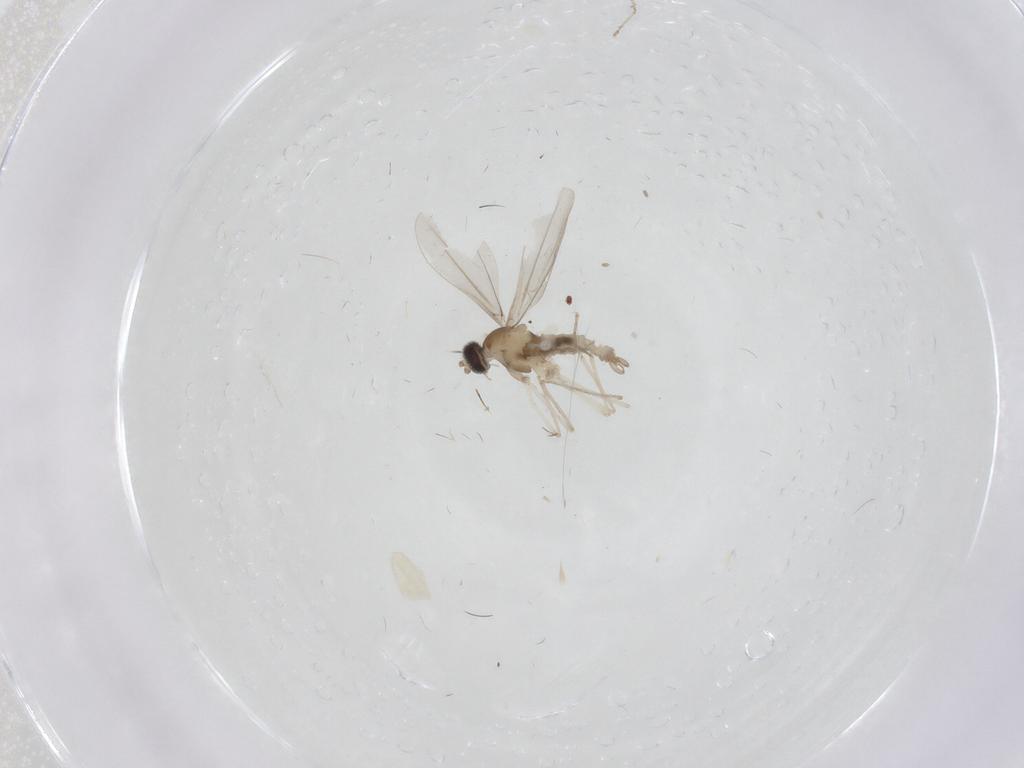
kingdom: Animalia
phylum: Arthropoda
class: Insecta
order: Diptera
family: Cecidomyiidae
